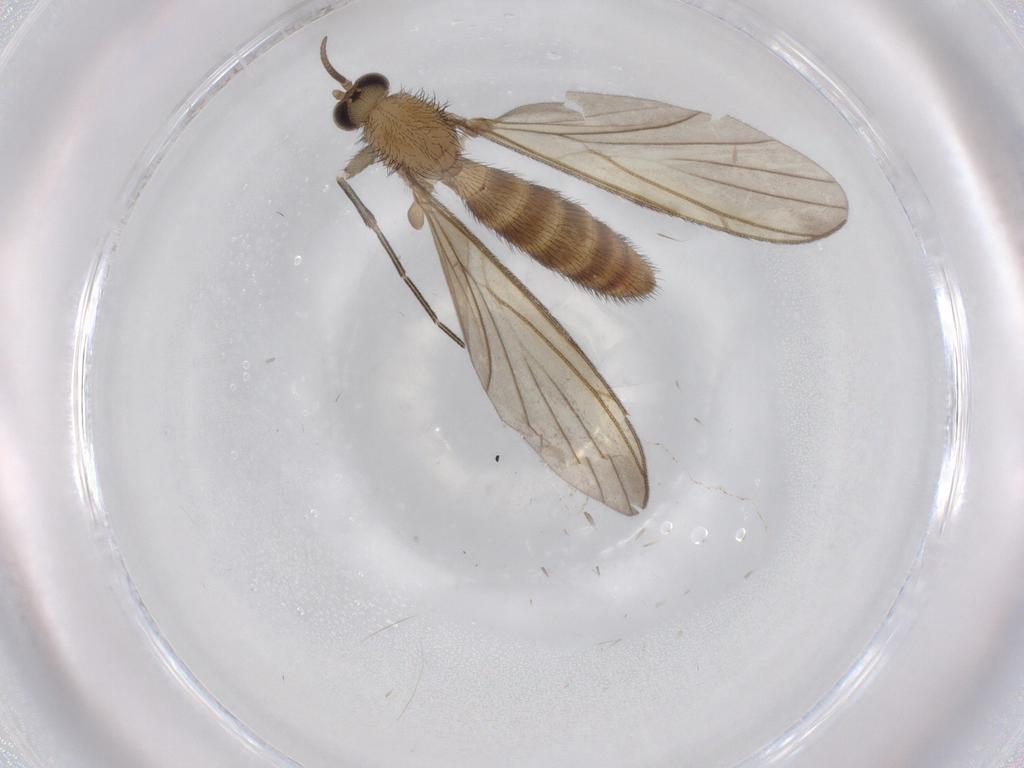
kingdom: Animalia
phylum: Arthropoda
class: Insecta
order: Diptera
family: Keroplatidae
